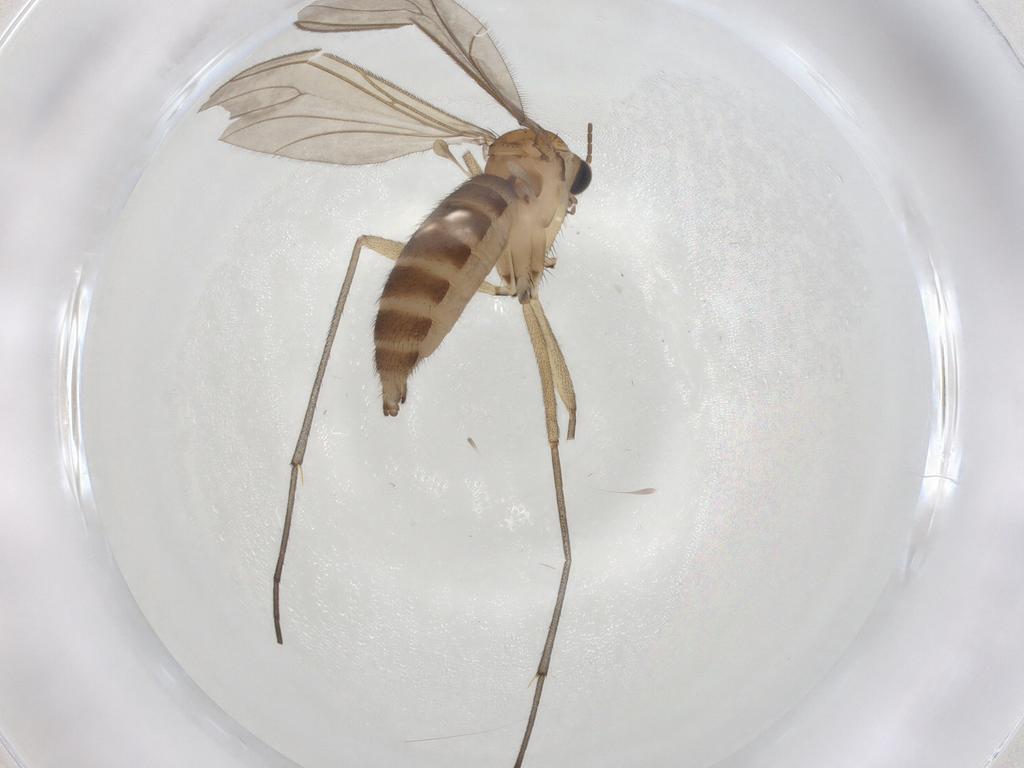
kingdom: Animalia
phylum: Arthropoda
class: Insecta
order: Diptera
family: Sciaridae
